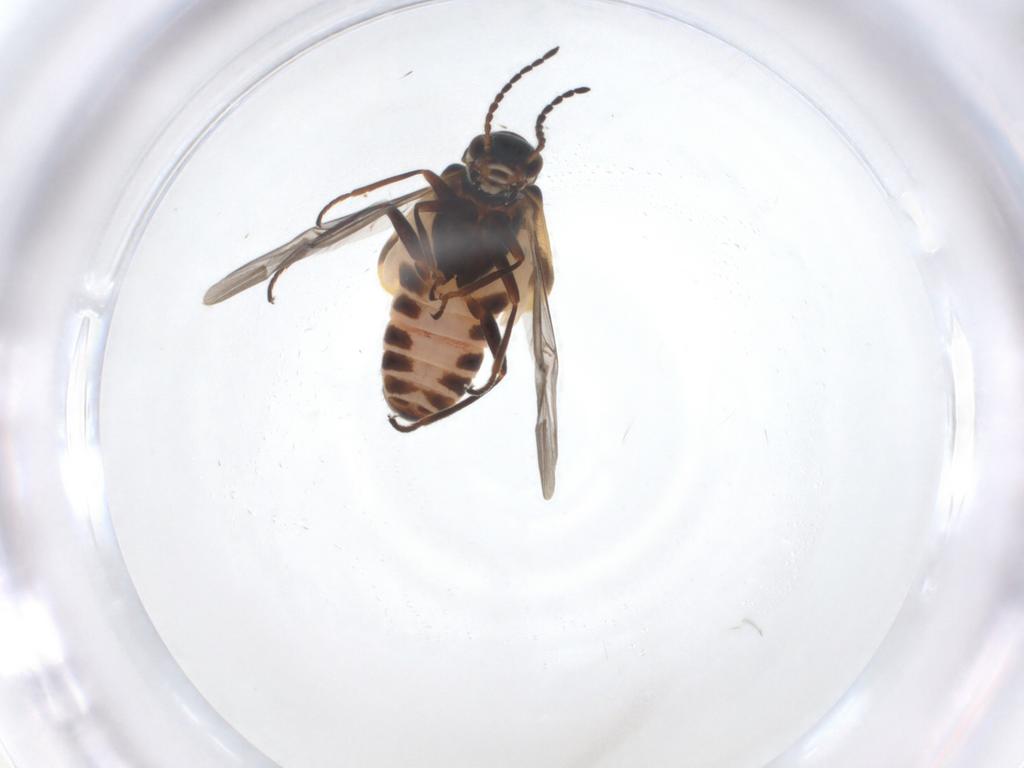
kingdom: Animalia
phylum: Arthropoda
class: Insecta
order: Coleoptera
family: Melyridae
